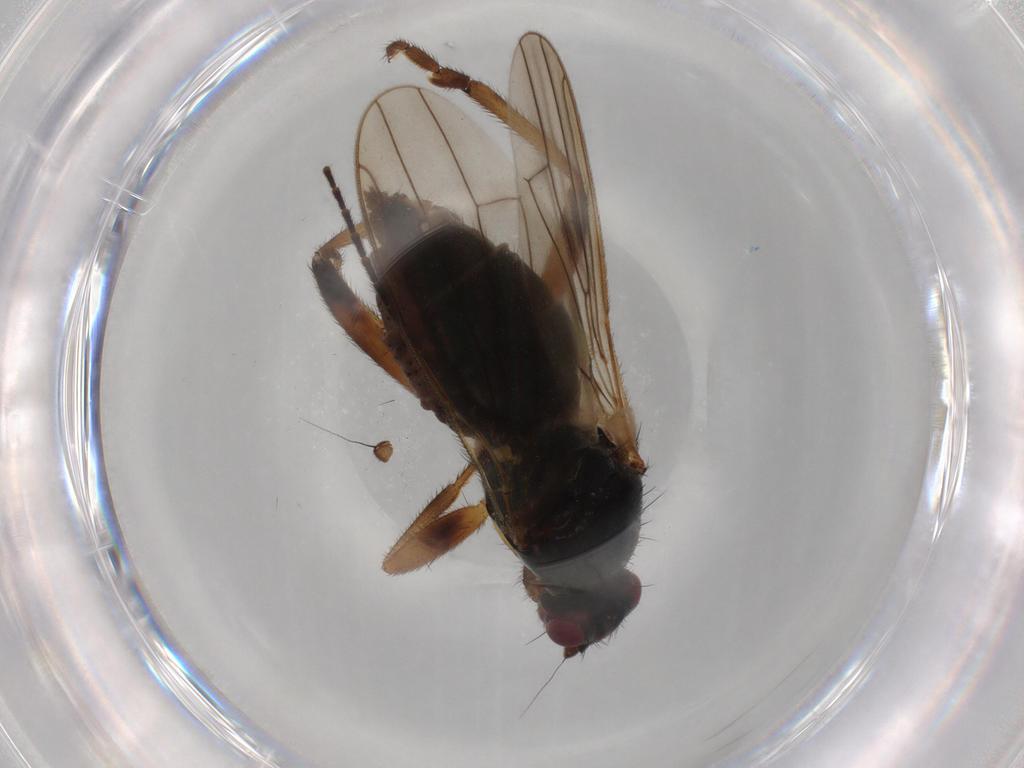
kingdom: Animalia
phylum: Arthropoda
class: Insecta
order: Diptera
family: Sphaeroceridae
